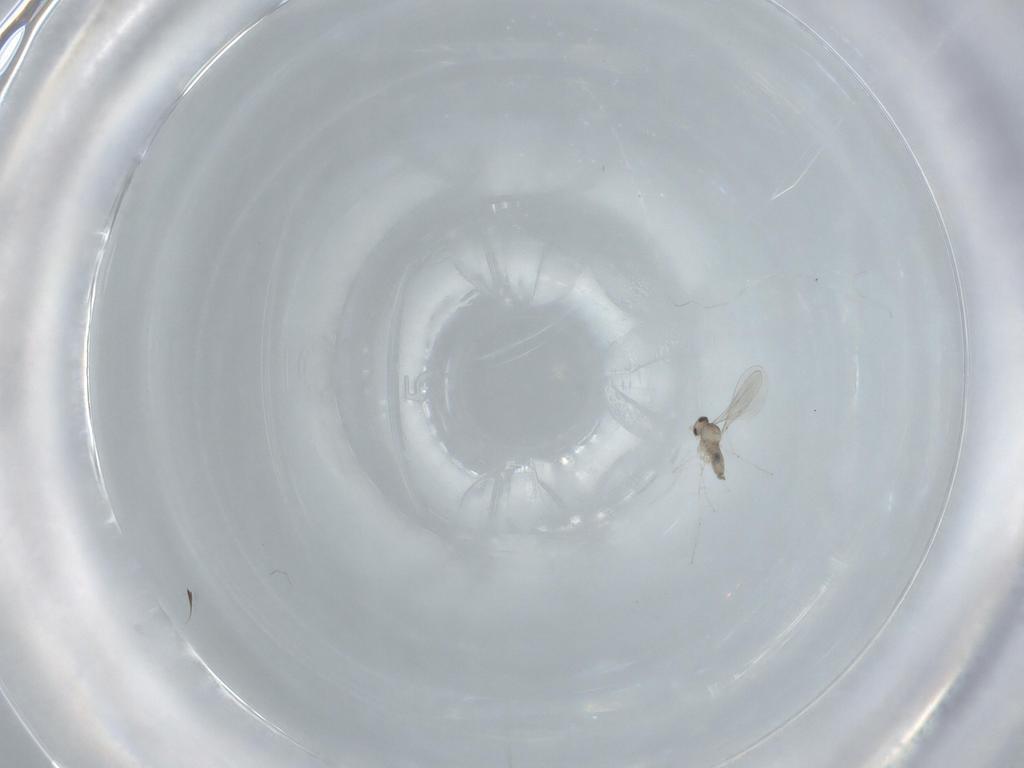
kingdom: Animalia
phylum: Arthropoda
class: Insecta
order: Diptera
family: Cecidomyiidae
